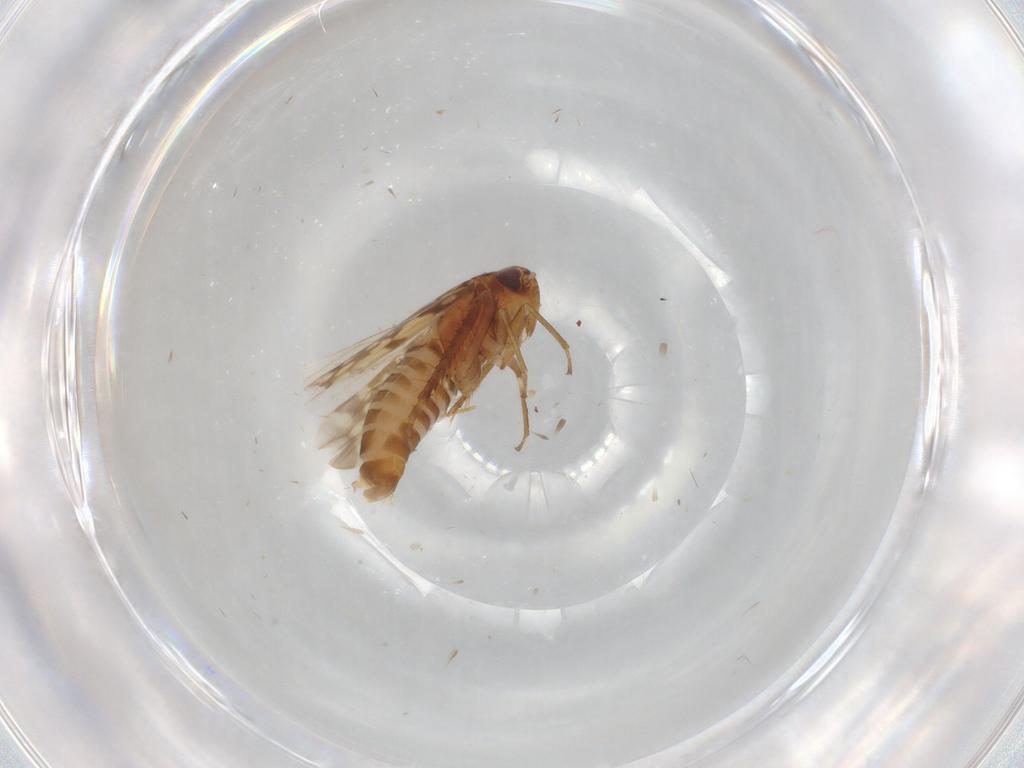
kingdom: Animalia
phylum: Arthropoda
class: Insecta
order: Hemiptera
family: Cicadellidae
